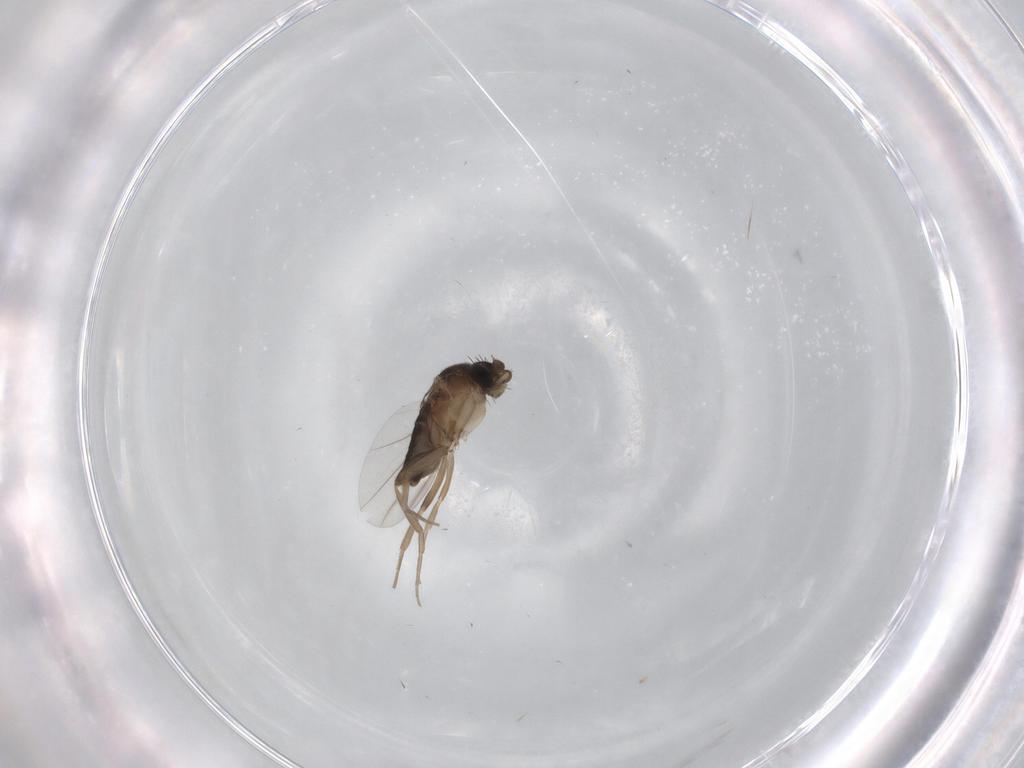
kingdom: Animalia
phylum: Arthropoda
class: Insecta
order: Diptera
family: Phoridae
